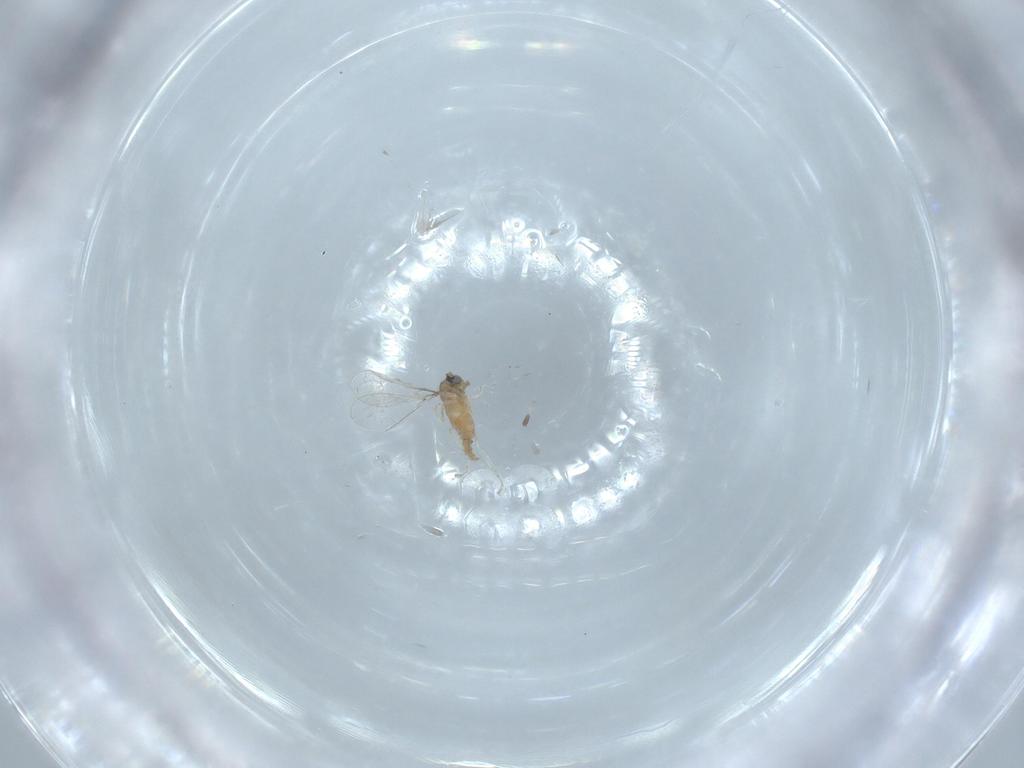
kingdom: Animalia
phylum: Arthropoda
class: Insecta
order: Diptera
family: Cecidomyiidae
